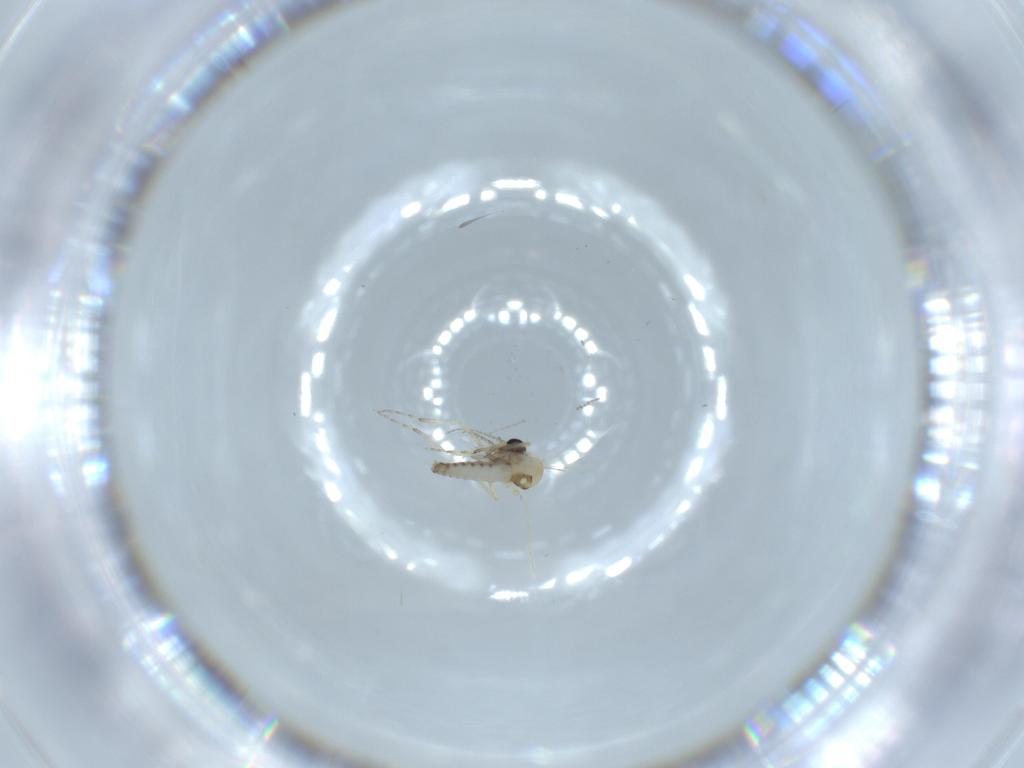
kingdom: Animalia
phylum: Arthropoda
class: Insecta
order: Diptera
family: Ceratopogonidae
